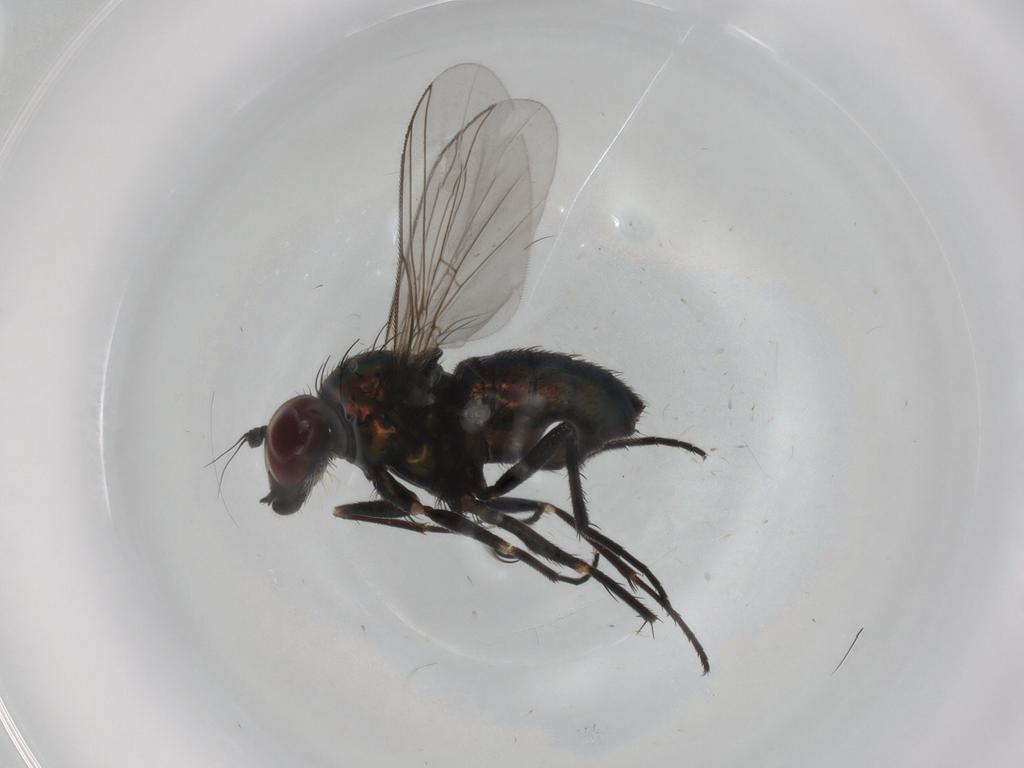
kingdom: Animalia
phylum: Arthropoda
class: Insecta
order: Diptera
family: Dolichopodidae
